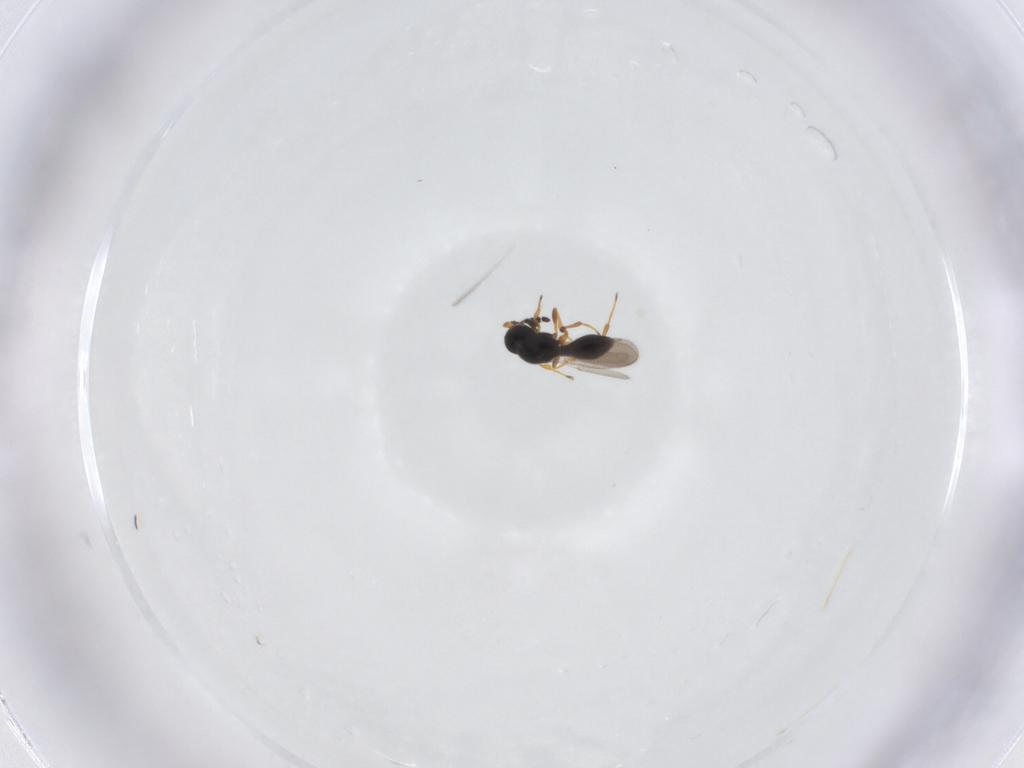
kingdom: Animalia
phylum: Arthropoda
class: Insecta
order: Hymenoptera
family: Platygastridae
